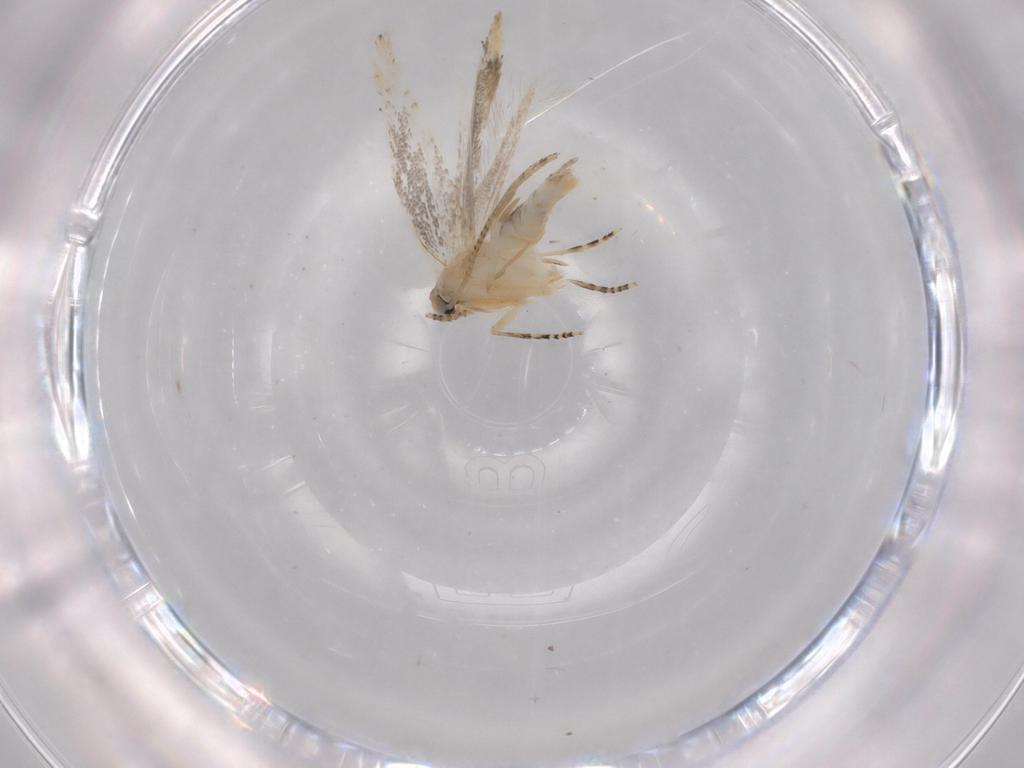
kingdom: Animalia
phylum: Arthropoda
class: Insecta
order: Lepidoptera
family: Bucculatricidae
